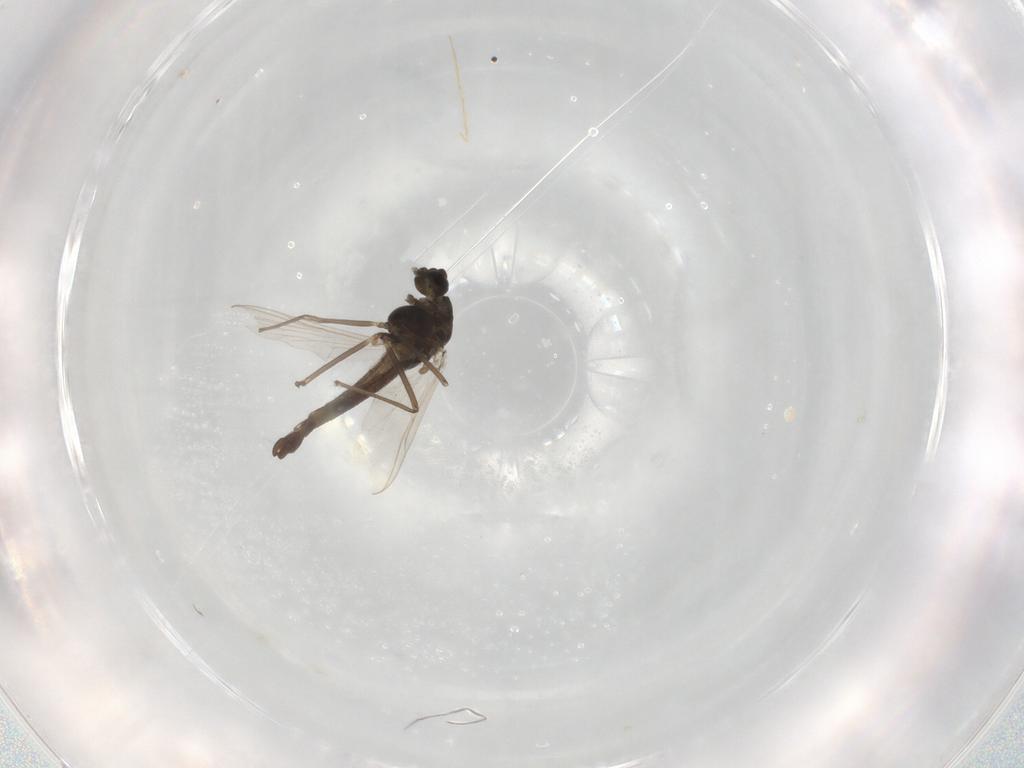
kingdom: Animalia
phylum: Arthropoda
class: Insecta
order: Diptera
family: Chironomidae
